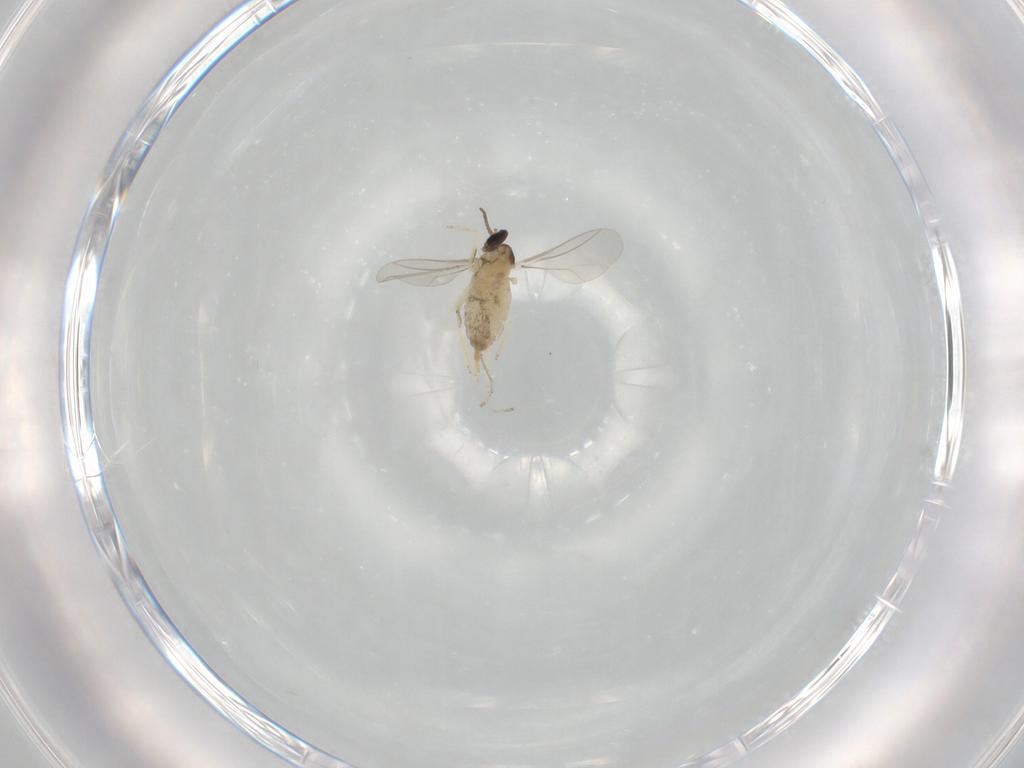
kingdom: Animalia
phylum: Arthropoda
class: Insecta
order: Diptera
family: Cecidomyiidae
